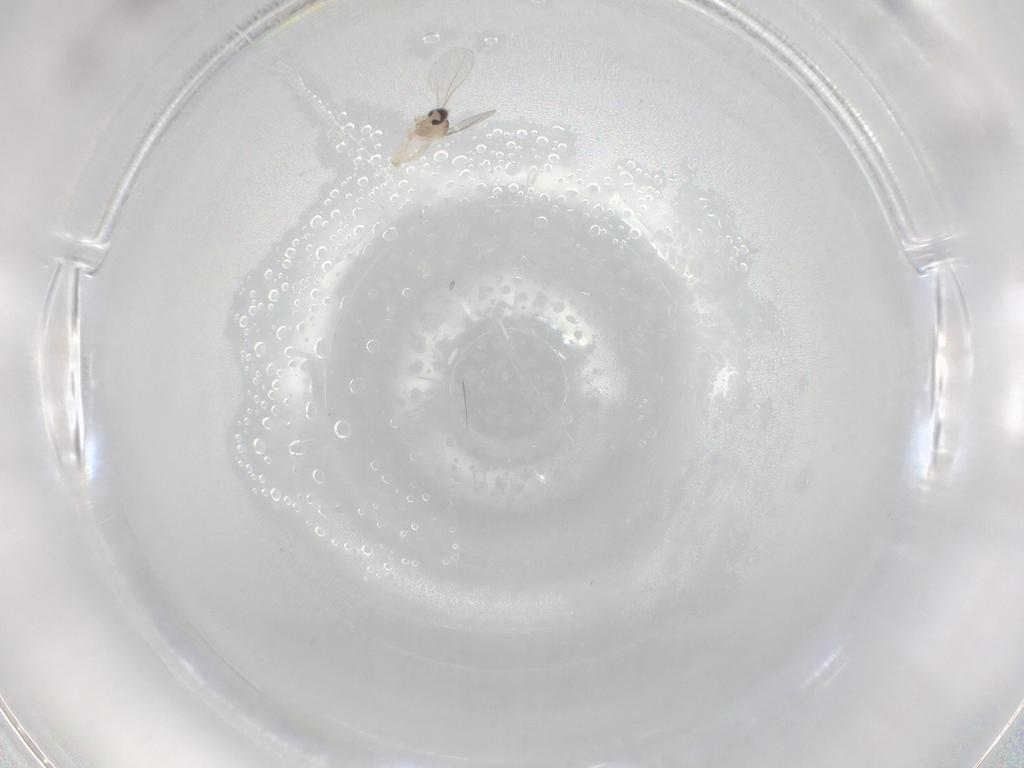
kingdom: Animalia
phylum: Arthropoda
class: Insecta
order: Diptera
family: Cecidomyiidae
